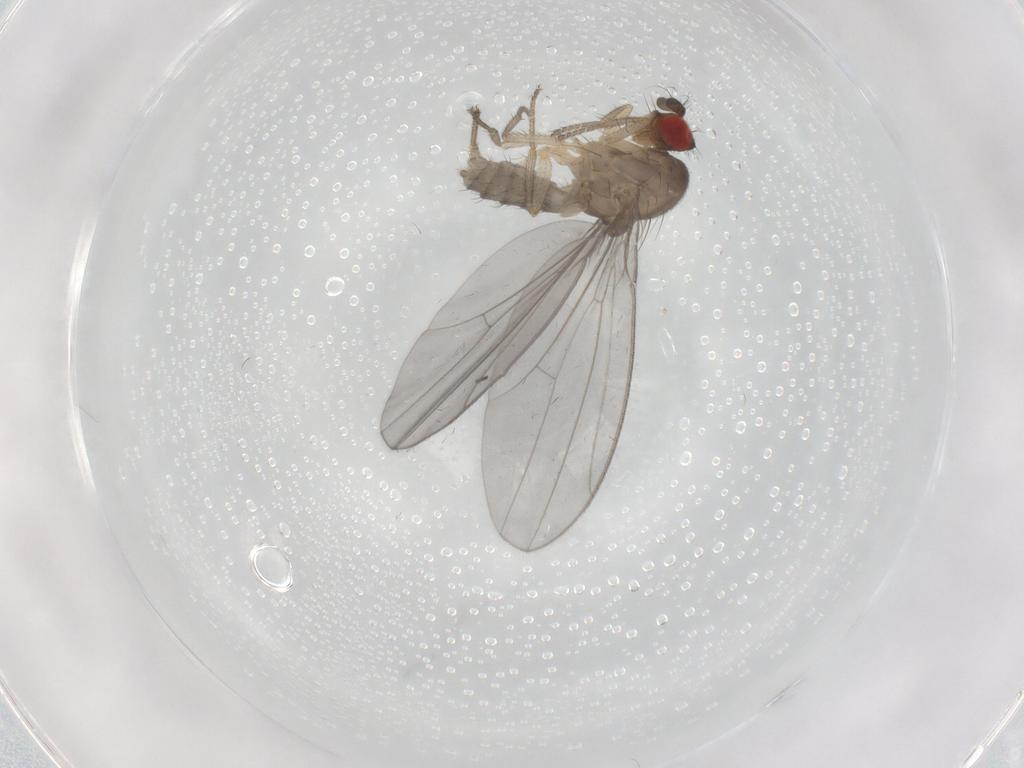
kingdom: Animalia
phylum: Arthropoda
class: Insecta
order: Diptera
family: Drosophilidae
